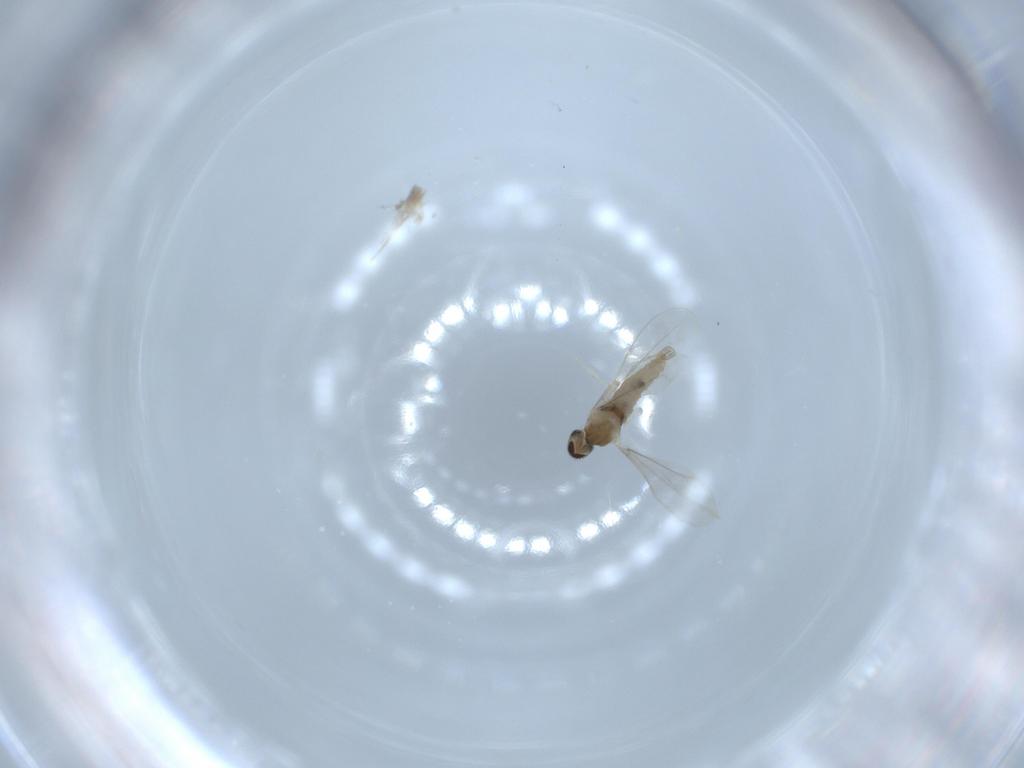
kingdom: Animalia
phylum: Arthropoda
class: Insecta
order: Diptera
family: Cecidomyiidae
